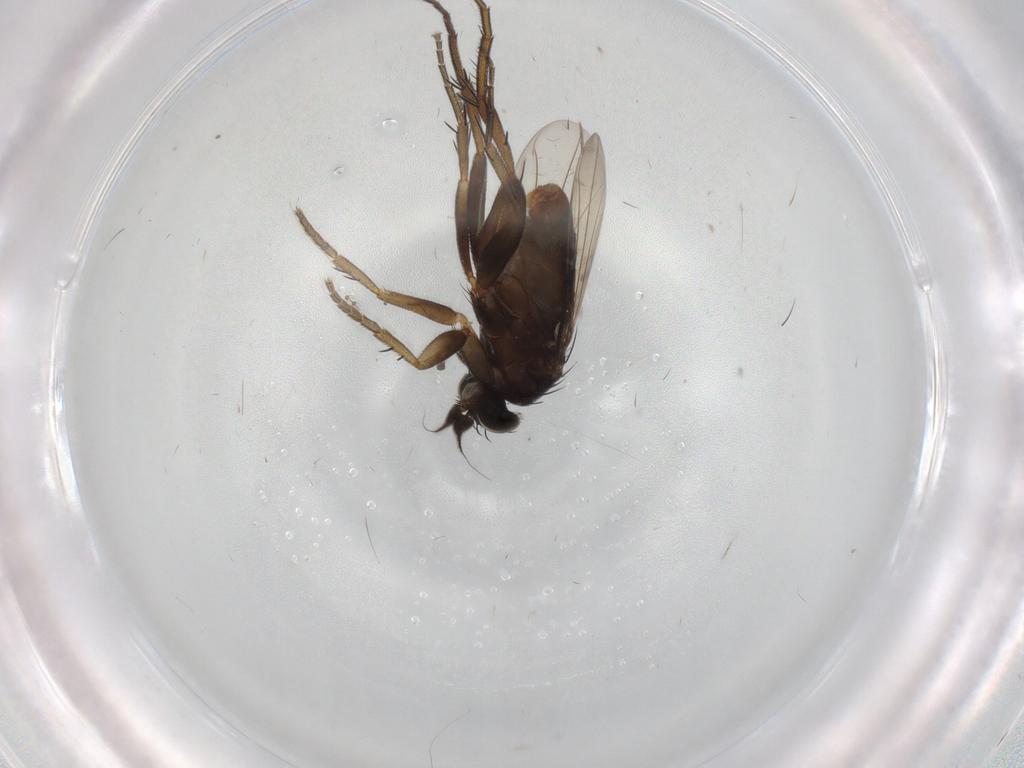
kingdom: Animalia
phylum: Arthropoda
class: Insecta
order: Diptera
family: Phoridae
